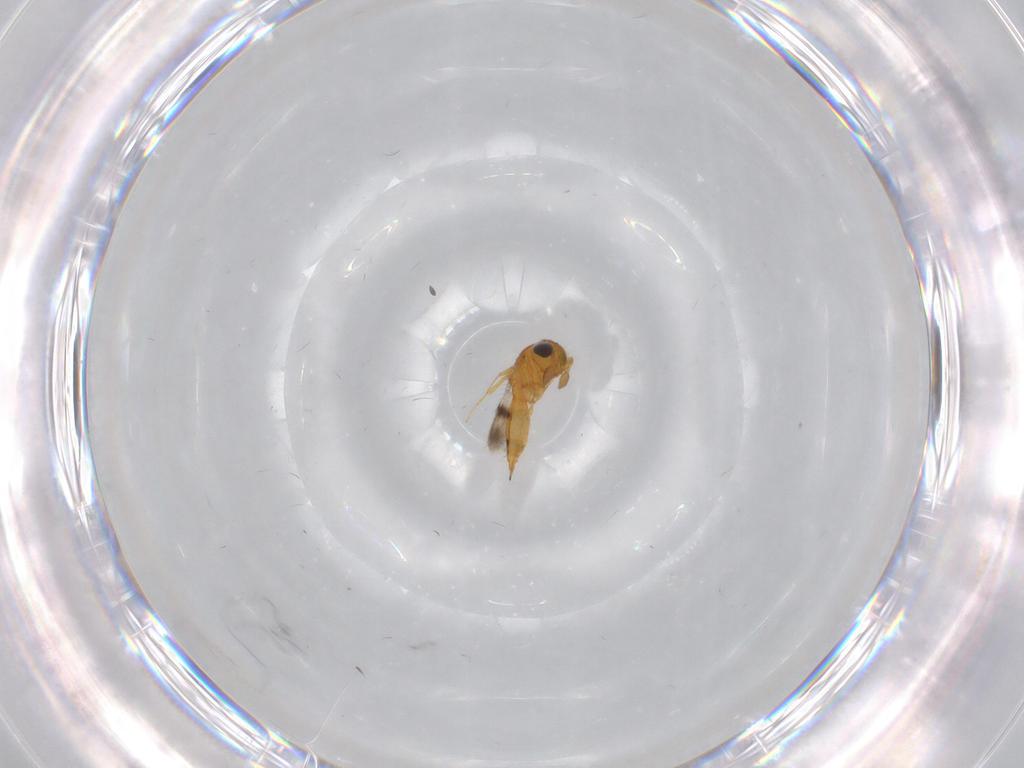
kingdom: Animalia
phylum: Arthropoda
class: Insecta
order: Hymenoptera
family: Scelionidae
